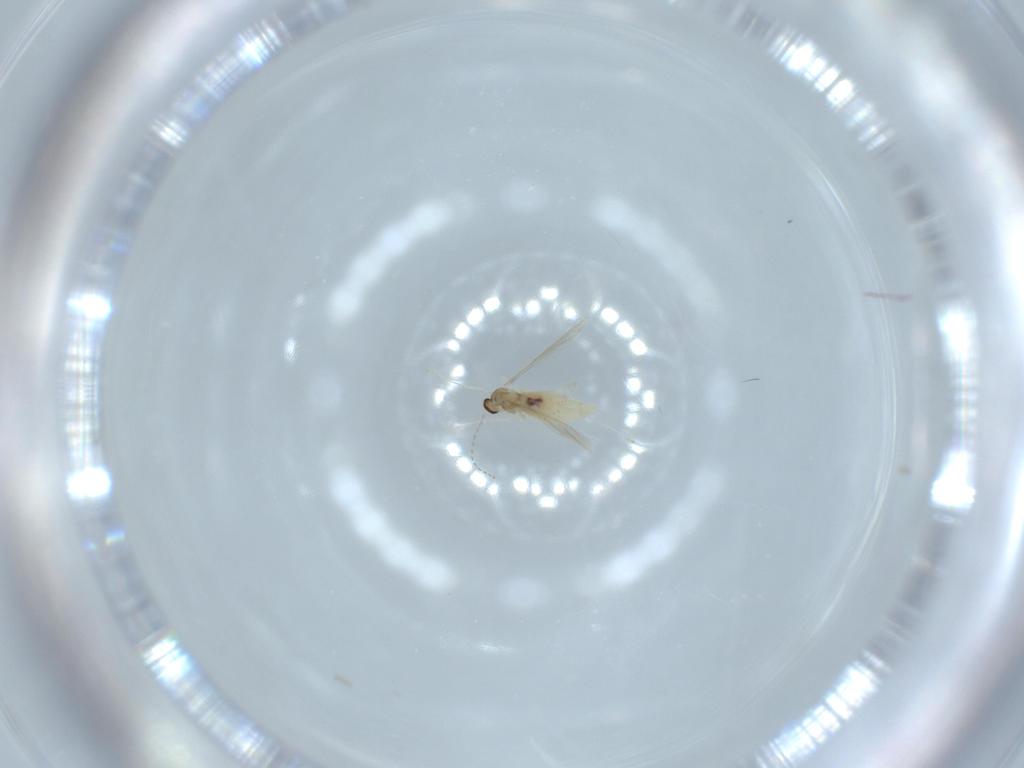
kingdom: Animalia
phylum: Arthropoda
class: Insecta
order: Diptera
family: Cecidomyiidae
